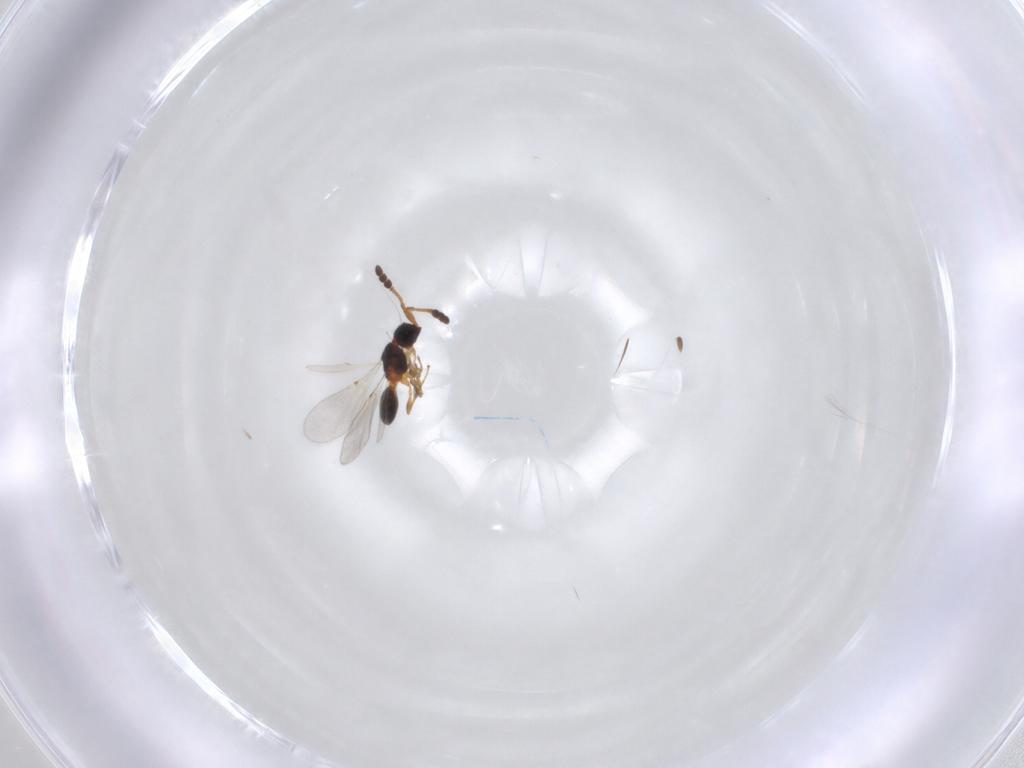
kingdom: Animalia
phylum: Arthropoda
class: Insecta
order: Hymenoptera
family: Diapriidae
